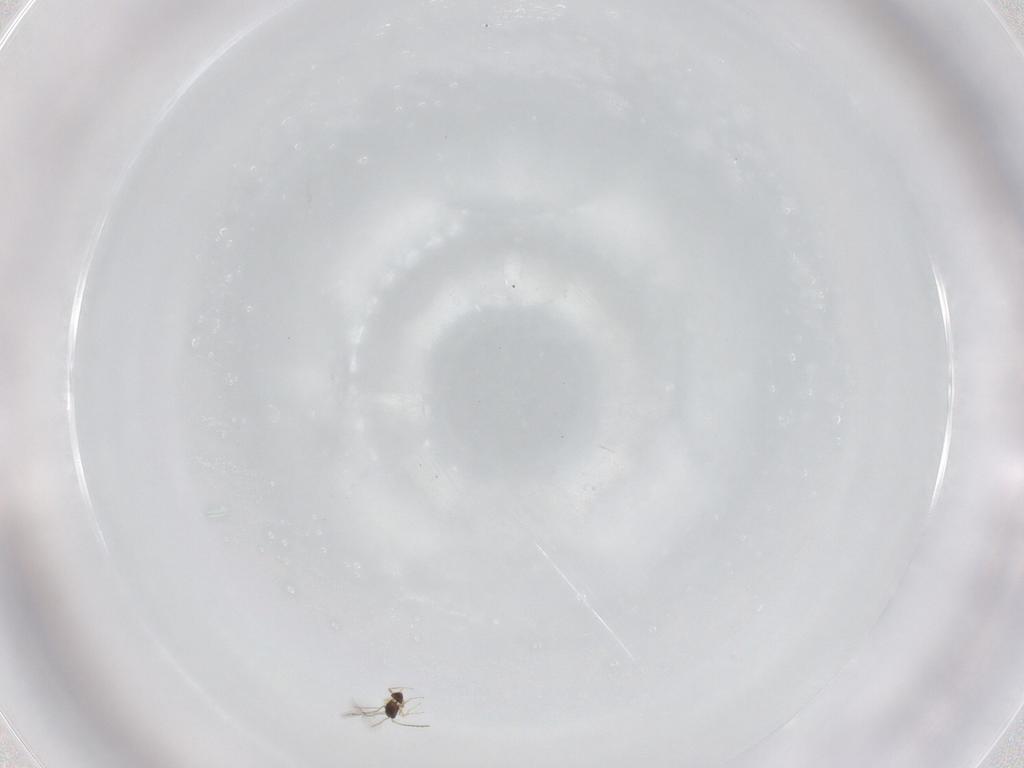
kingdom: Animalia
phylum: Arthropoda
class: Insecta
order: Hymenoptera
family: Mymaridae
